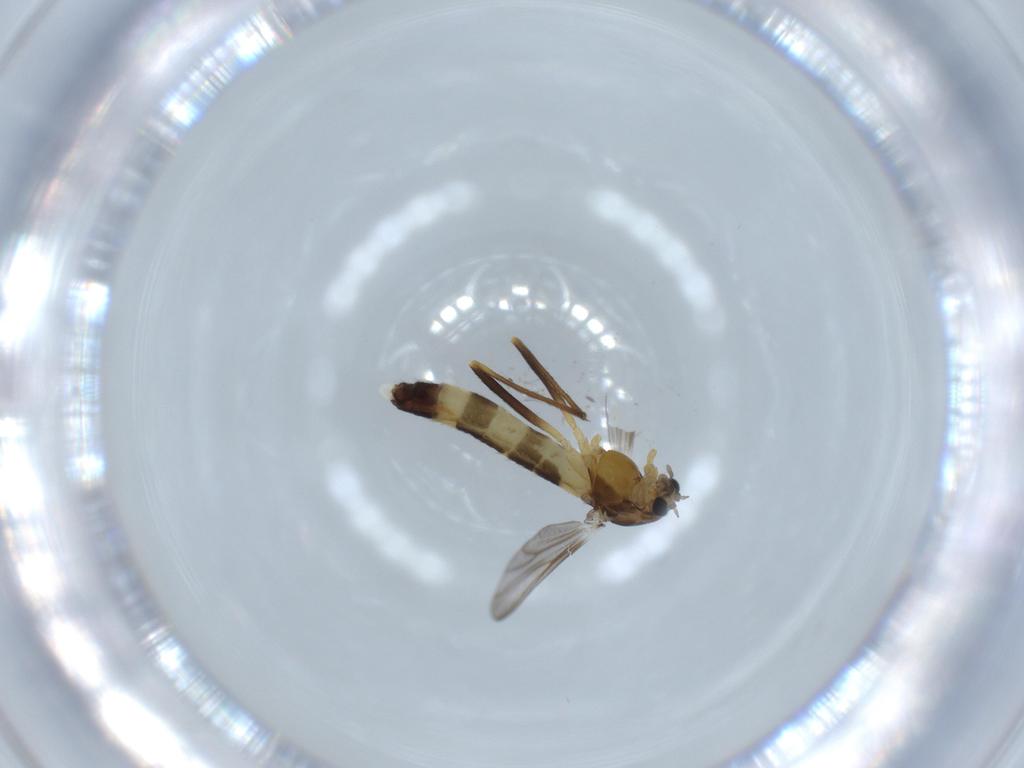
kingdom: Animalia
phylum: Arthropoda
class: Insecta
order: Diptera
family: Chironomidae
